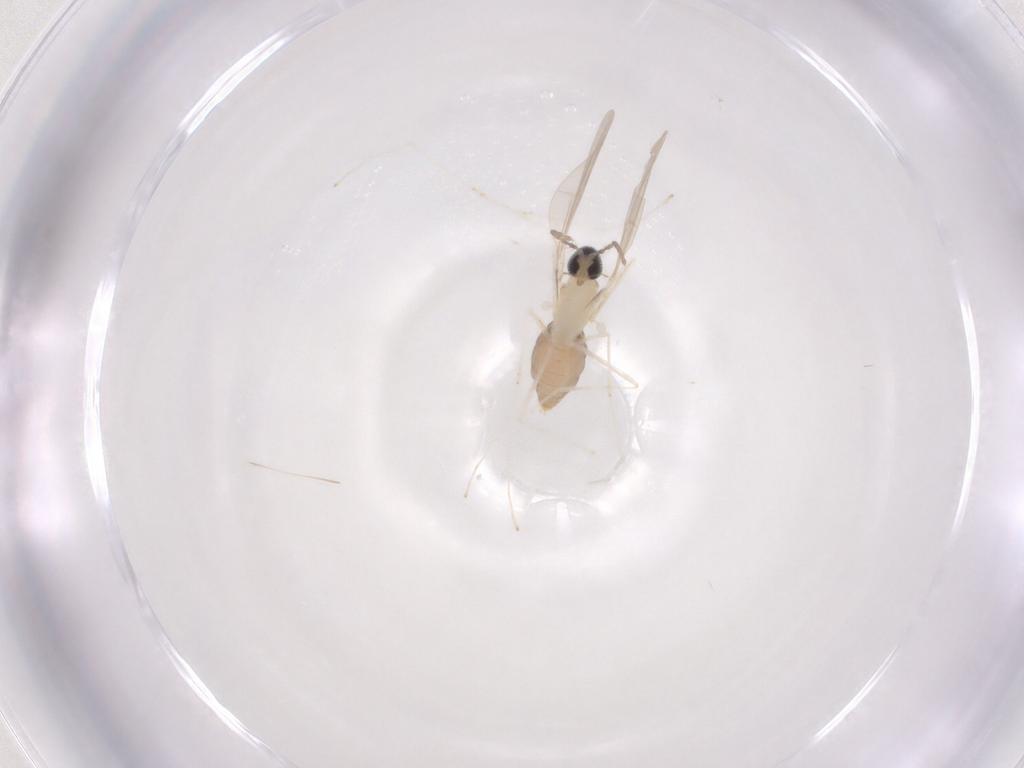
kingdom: Animalia
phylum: Arthropoda
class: Insecta
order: Diptera
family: Cecidomyiidae
